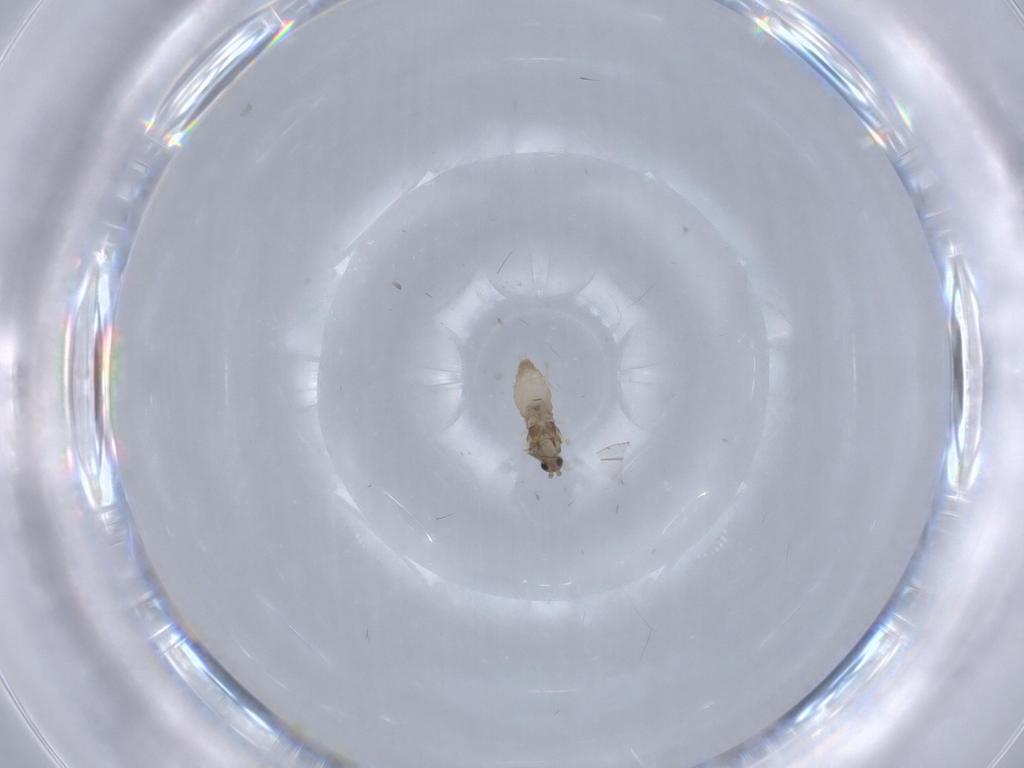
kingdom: Animalia
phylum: Arthropoda
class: Insecta
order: Diptera
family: Cecidomyiidae
